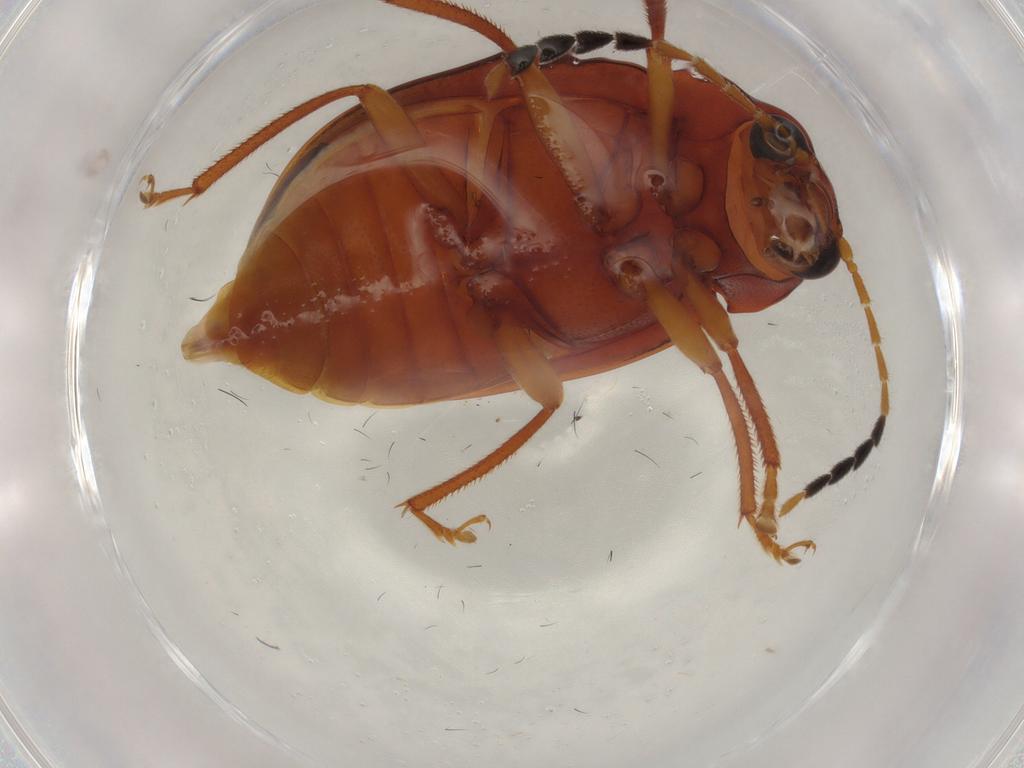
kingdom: Animalia
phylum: Arthropoda
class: Insecta
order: Coleoptera
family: Ptilodactylidae
